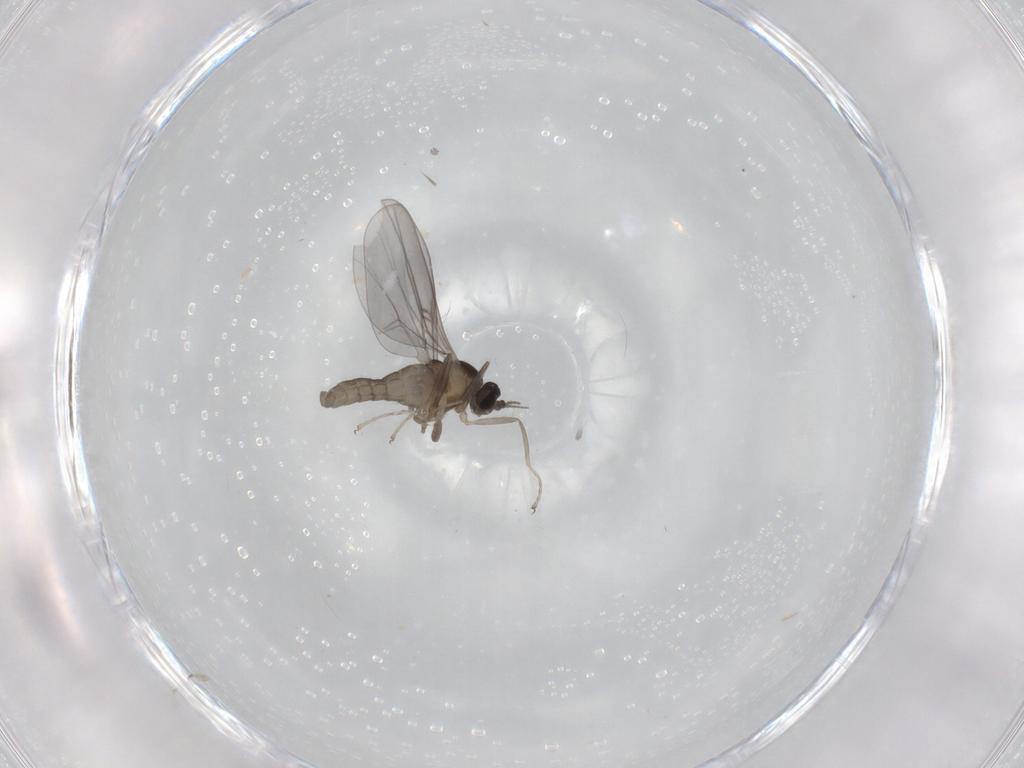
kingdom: Animalia
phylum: Arthropoda
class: Insecta
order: Diptera
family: Cecidomyiidae
